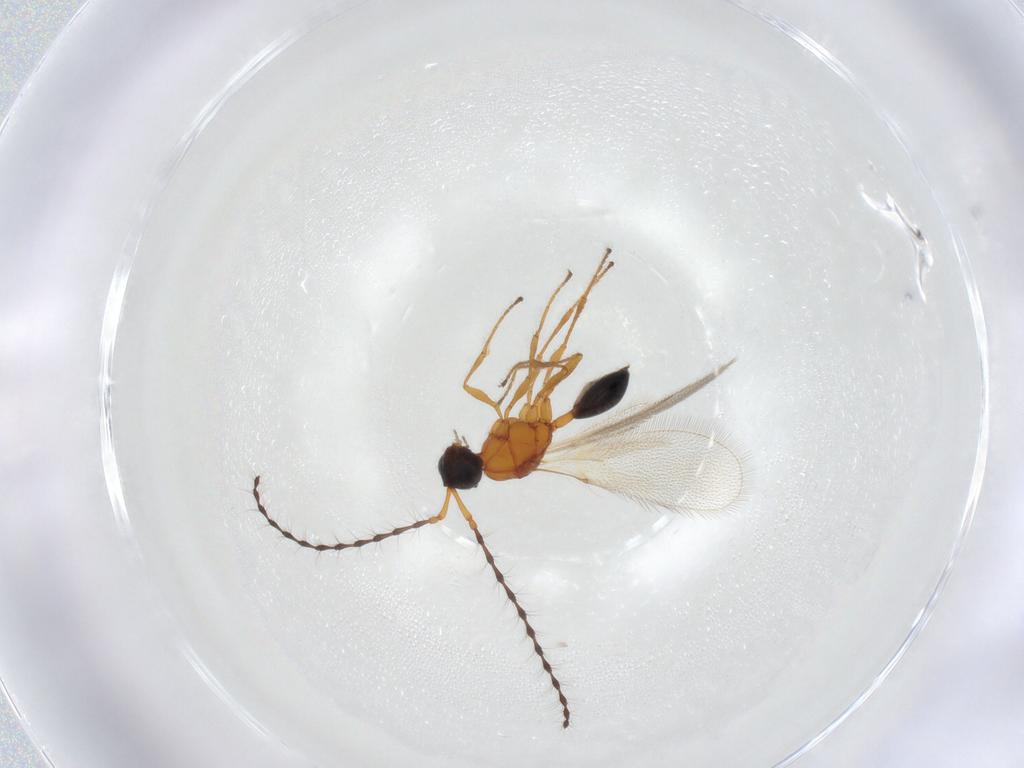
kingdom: Animalia
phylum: Arthropoda
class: Insecta
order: Hymenoptera
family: Diapriidae
